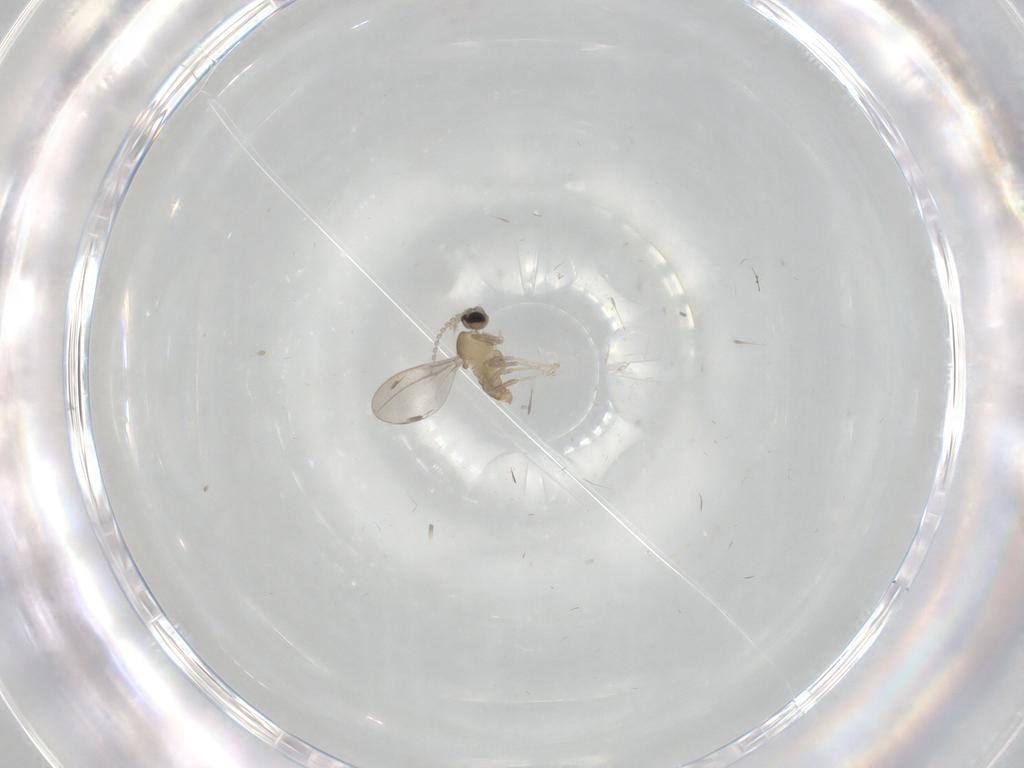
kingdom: Animalia
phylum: Arthropoda
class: Insecta
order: Diptera
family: Cecidomyiidae
